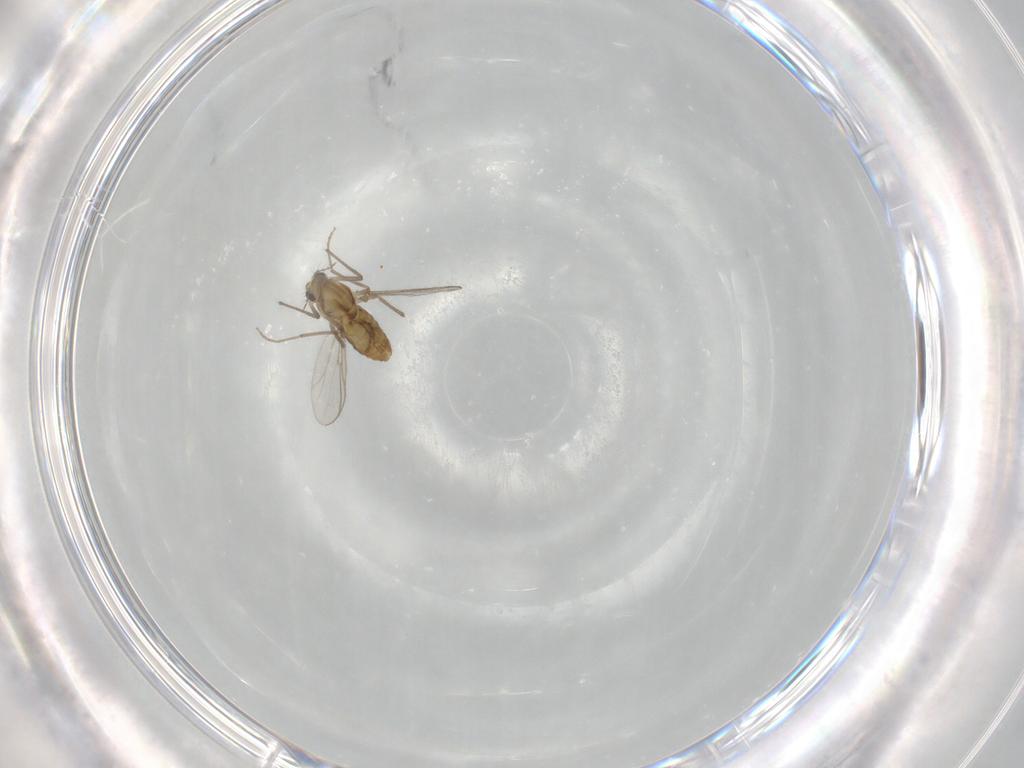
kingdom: Animalia
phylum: Arthropoda
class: Insecta
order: Diptera
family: Chironomidae
